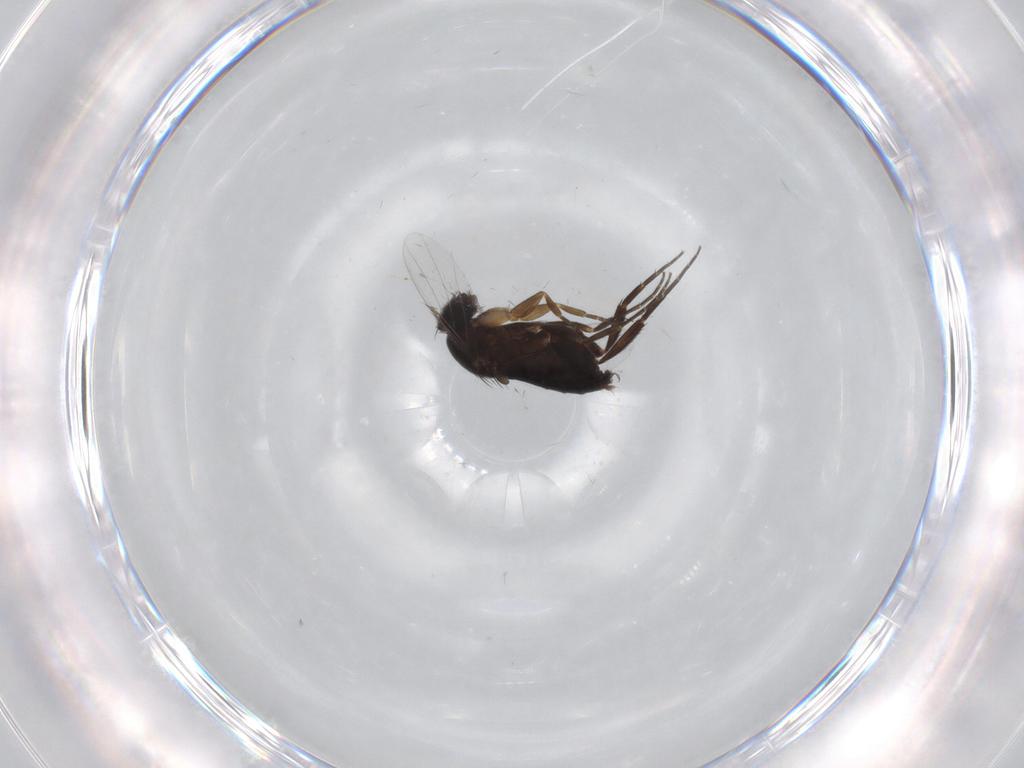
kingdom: Animalia
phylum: Arthropoda
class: Insecta
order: Diptera
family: Phoridae
